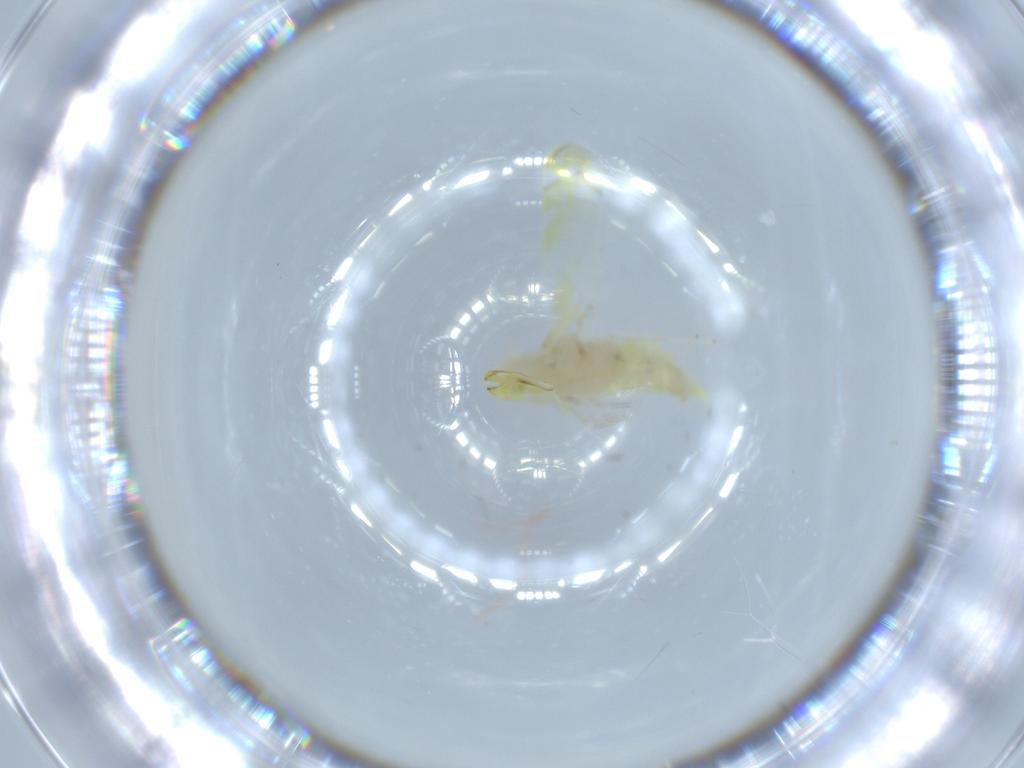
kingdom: Animalia
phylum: Arthropoda
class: Insecta
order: Hemiptera
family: Cicadellidae
